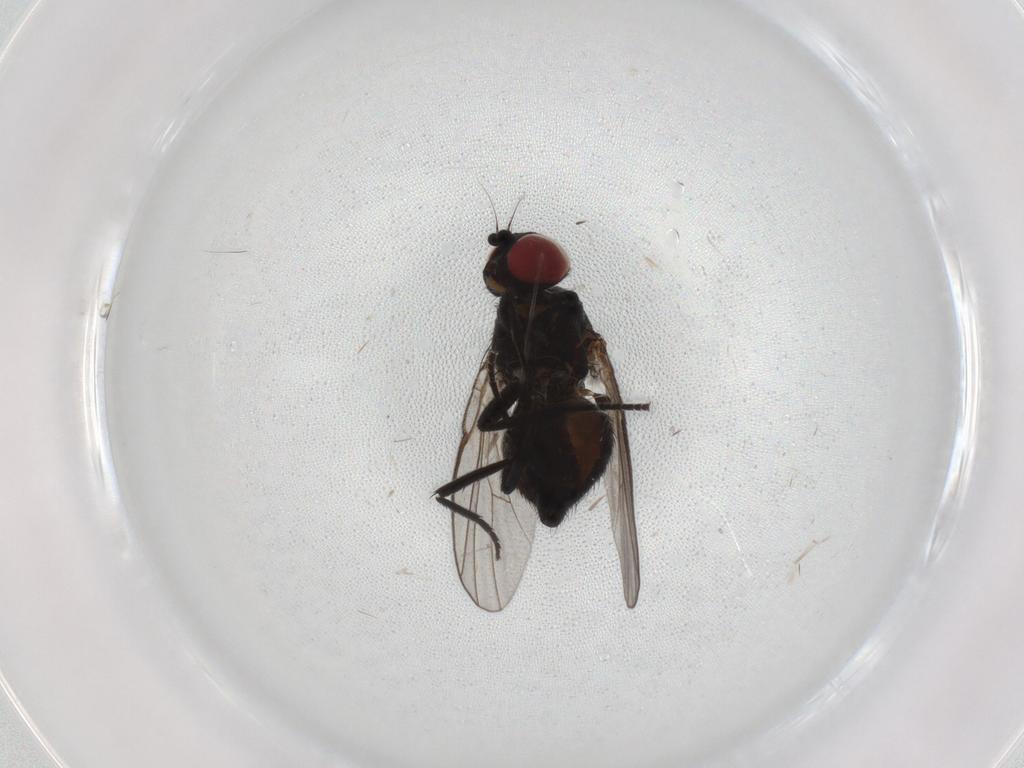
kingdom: Animalia
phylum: Arthropoda
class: Insecta
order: Diptera
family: Agromyzidae
